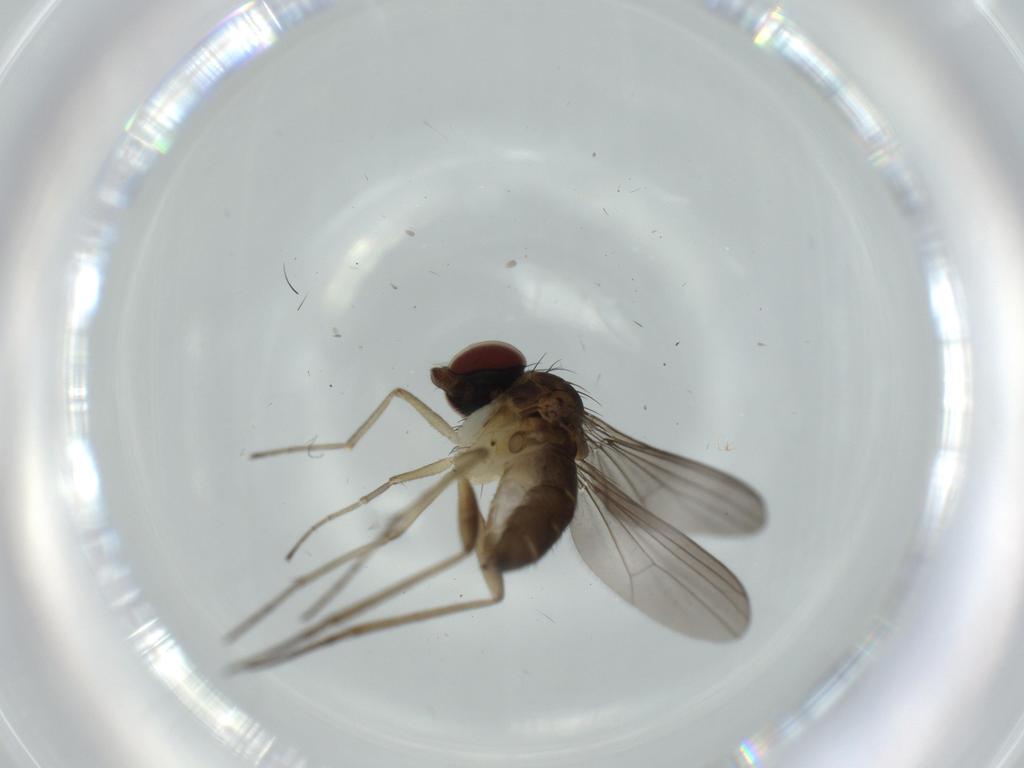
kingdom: Animalia
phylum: Arthropoda
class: Insecta
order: Diptera
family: Dolichopodidae
